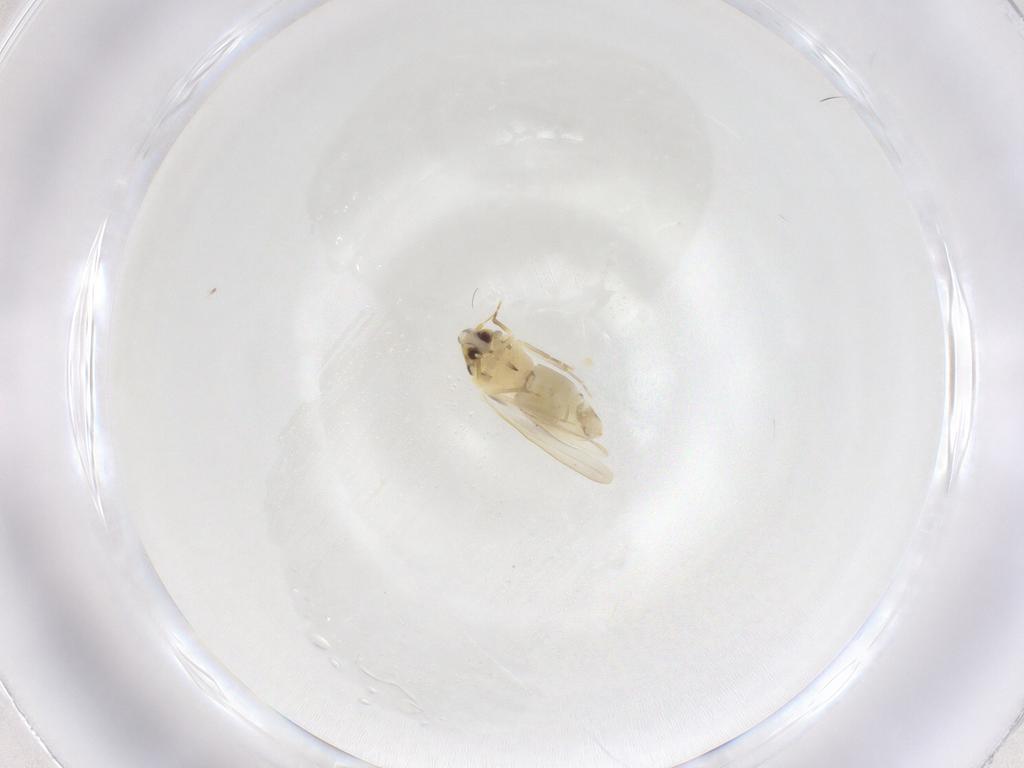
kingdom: Animalia
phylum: Arthropoda
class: Insecta
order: Hemiptera
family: Aleyrodidae
